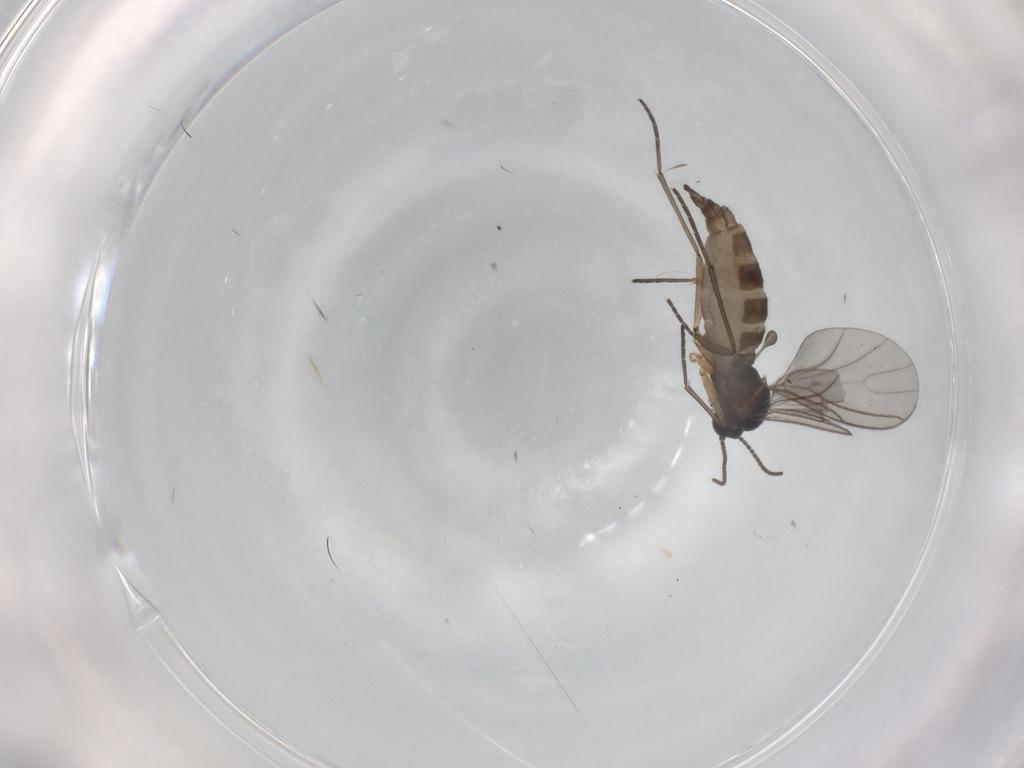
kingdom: Animalia
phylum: Arthropoda
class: Insecta
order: Diptera
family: Sciaridae
